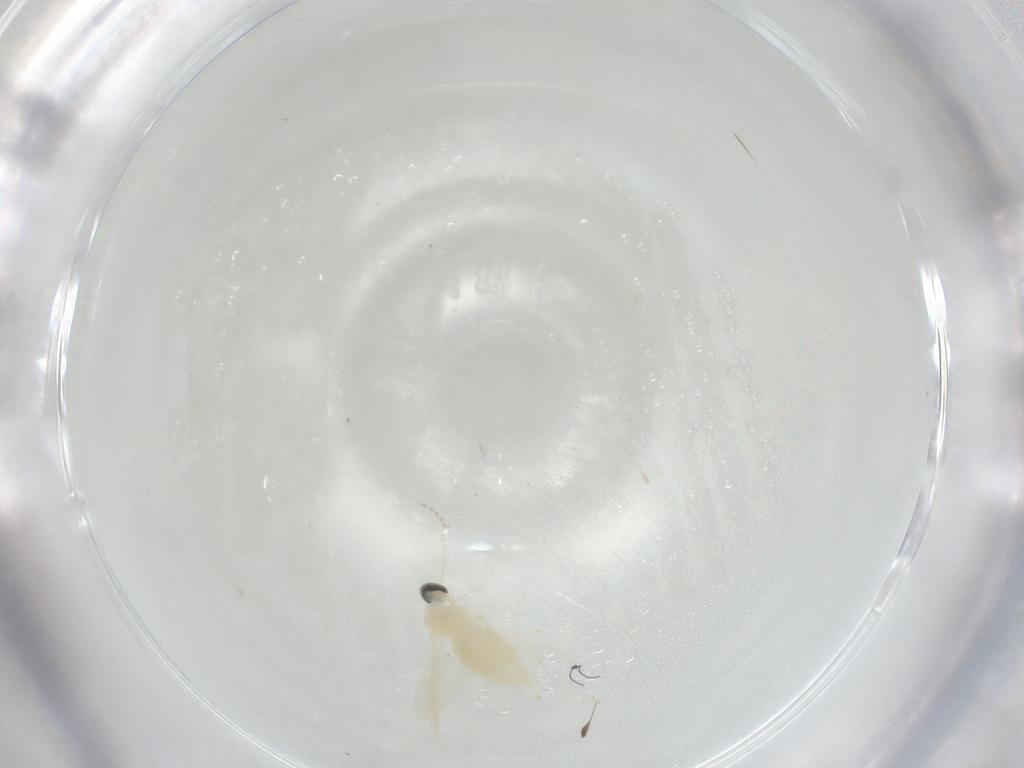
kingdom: Animalia
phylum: Arthropoda
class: Insecta
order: Diptera
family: Cecidomyiidae
